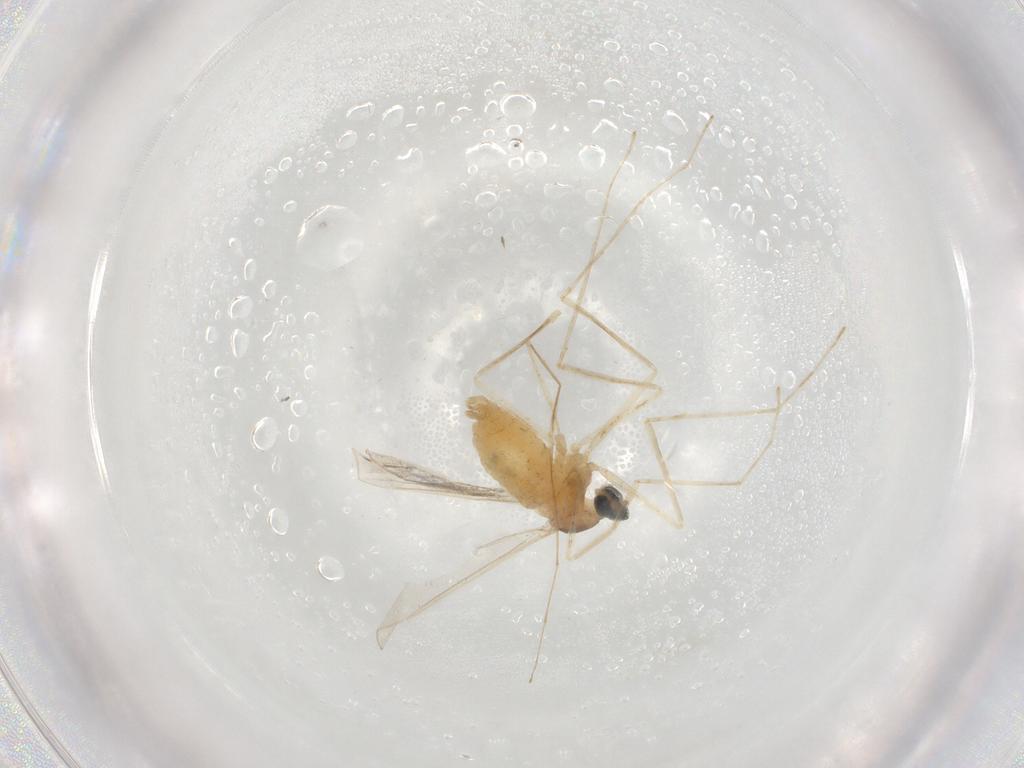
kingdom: Animalia
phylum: Arthropoda
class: Insecta
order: Diptera
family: Cecidomyiidae
